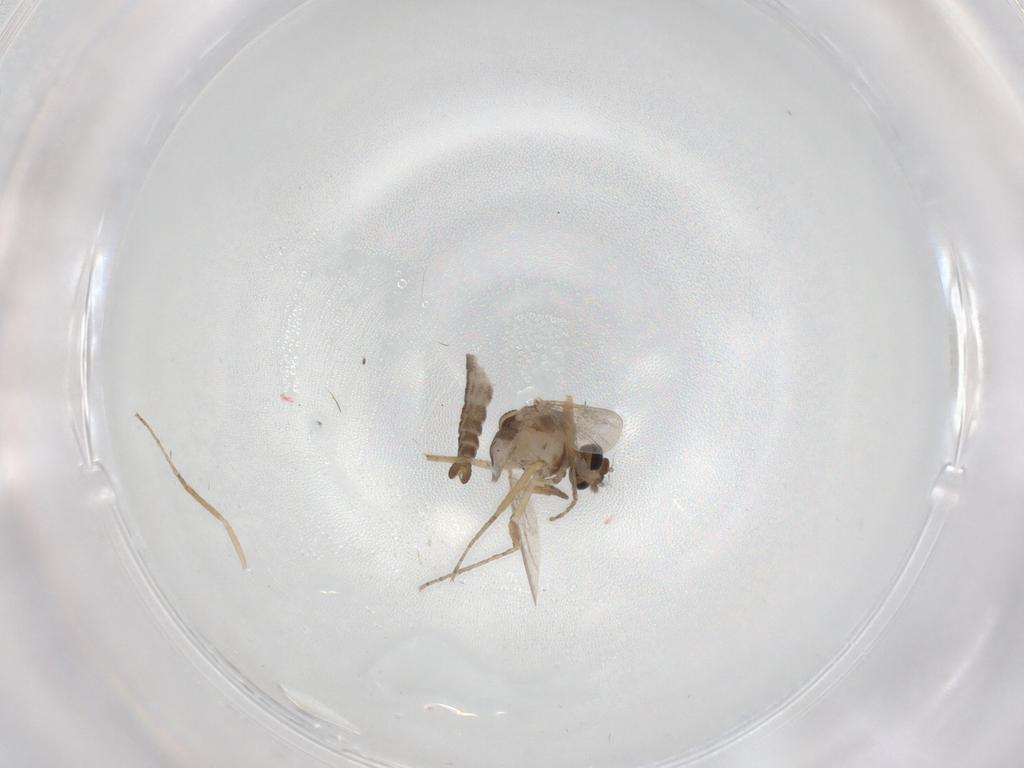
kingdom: Animalia
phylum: Arthropoda
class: Insecta
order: Diptera
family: Ceratopogonidae
